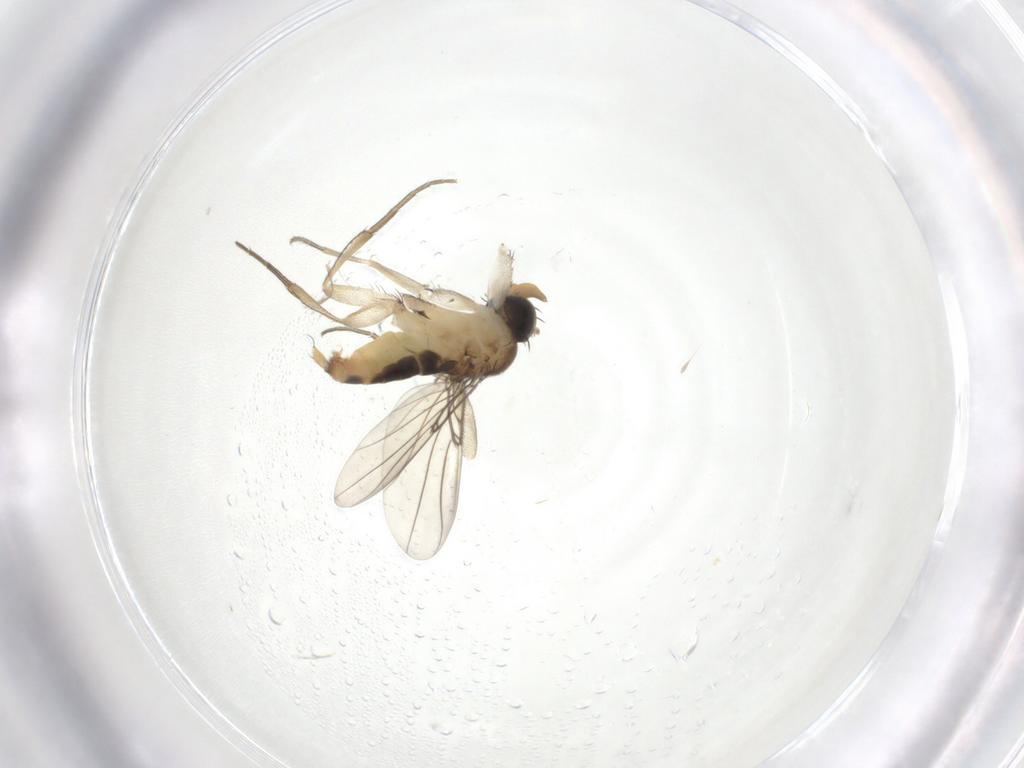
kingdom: Animalia
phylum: Arthropoda
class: Insecta
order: Diptera
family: Phoridae
